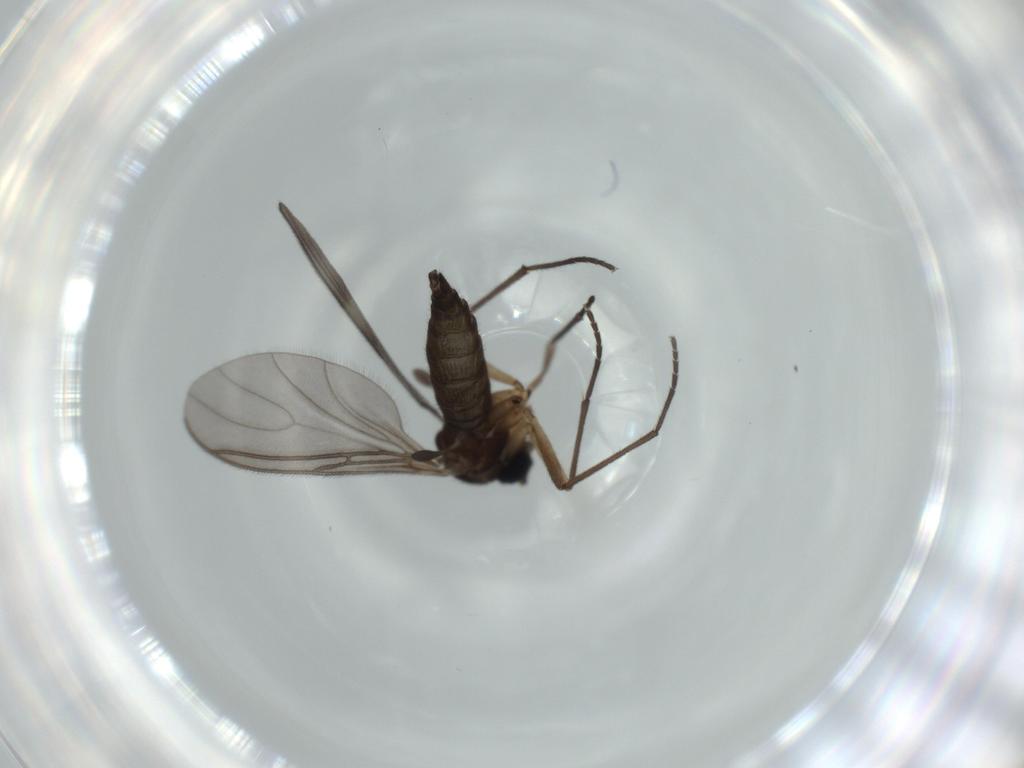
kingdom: Animalia
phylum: Arthropoda
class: Insecta
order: Diptera
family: Sciaridae
